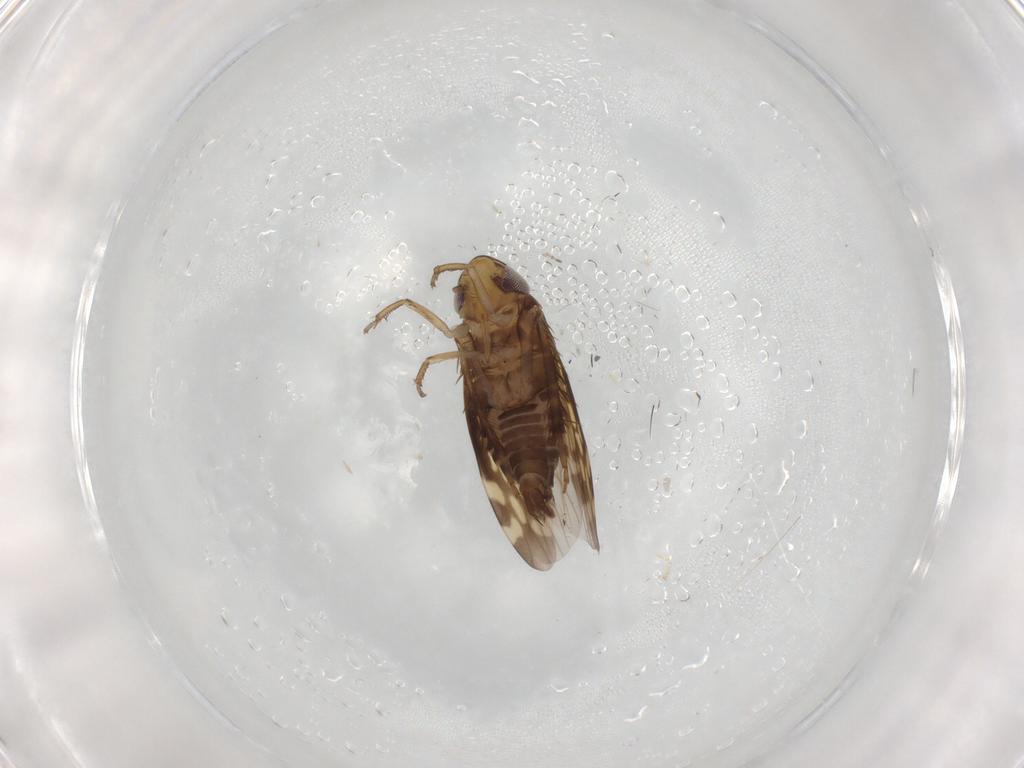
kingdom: Animalia
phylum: Arthropoda
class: Insecta
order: Hemiptera
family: Cicadellidae
